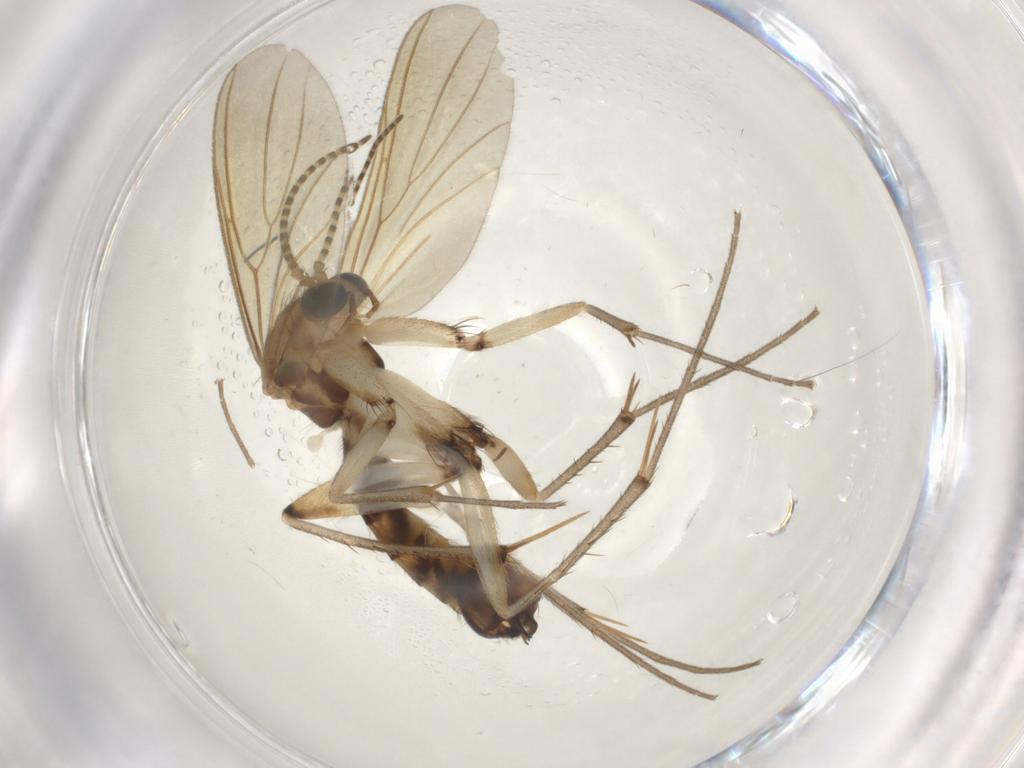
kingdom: Animalia
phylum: Arthropoda
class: Insecta
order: Diptera
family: Mycetophilidae
